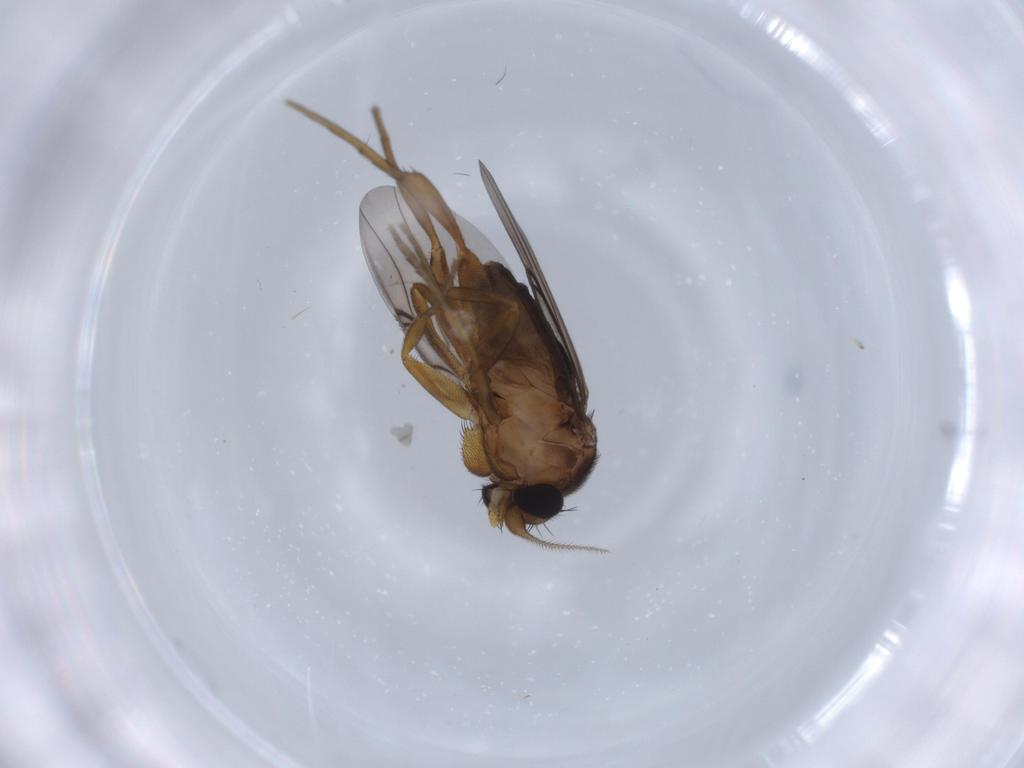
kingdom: Animalia
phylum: Arthropoda
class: Insecta
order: Diptera
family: Phoridae
